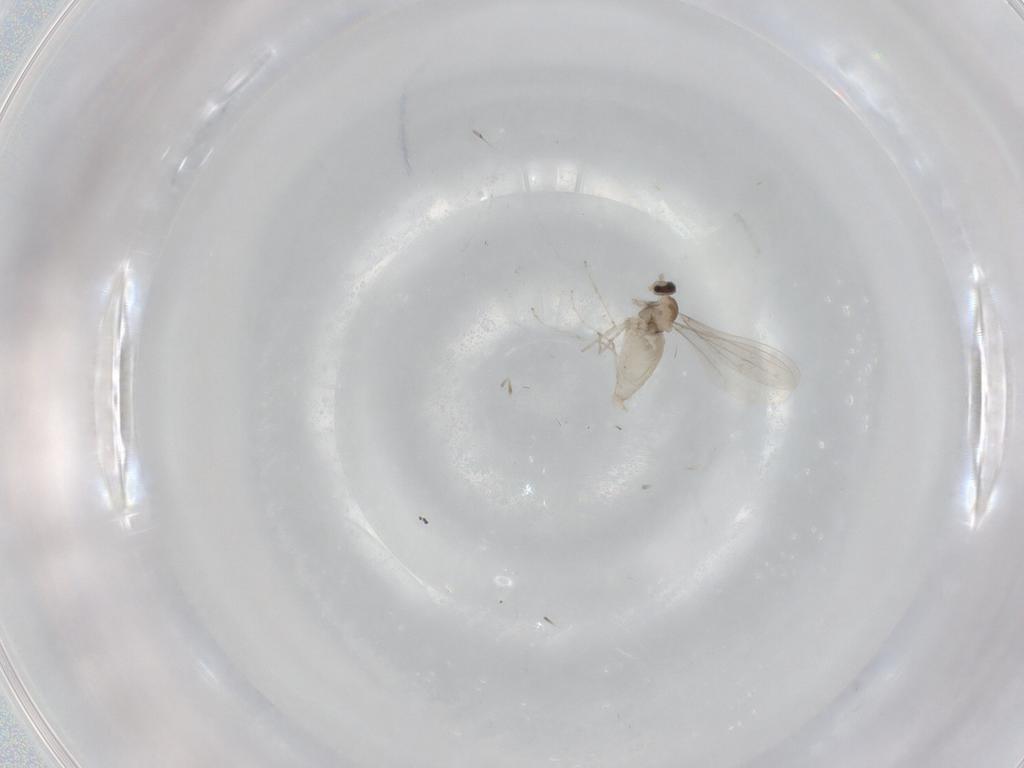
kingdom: Animalia
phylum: Arthropoda
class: Insecta
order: Diptera
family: Cecidomyiidae
